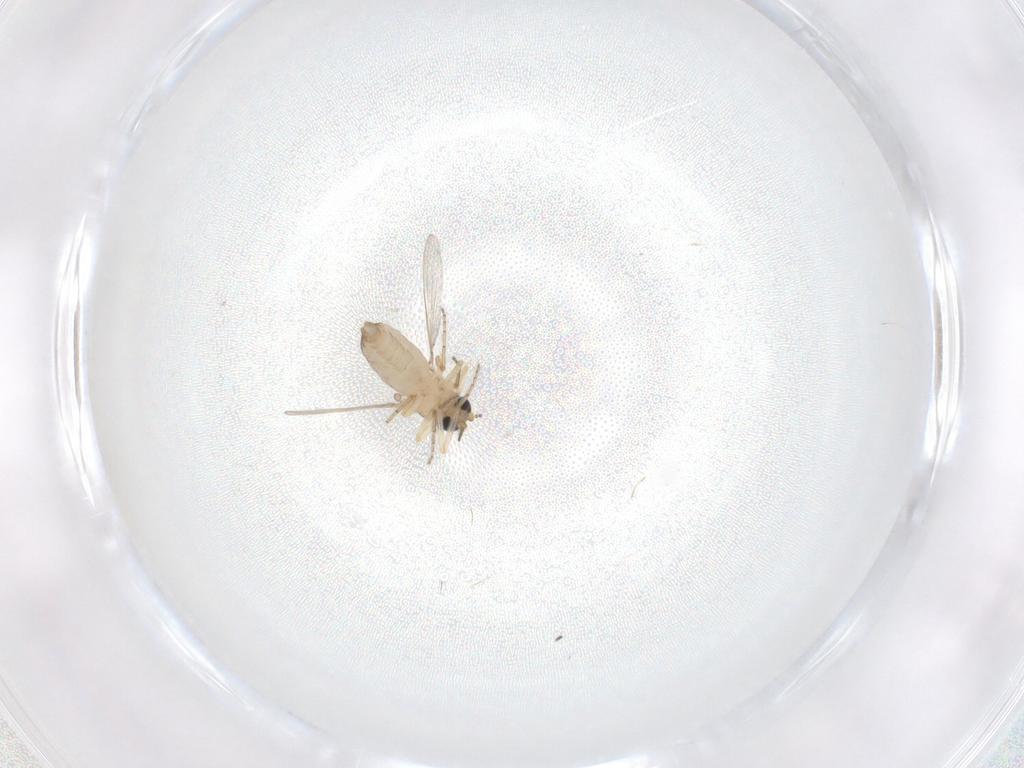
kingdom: Animalia
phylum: Arthropoda
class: Insecta
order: Diptera
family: Ceratopogonidae
